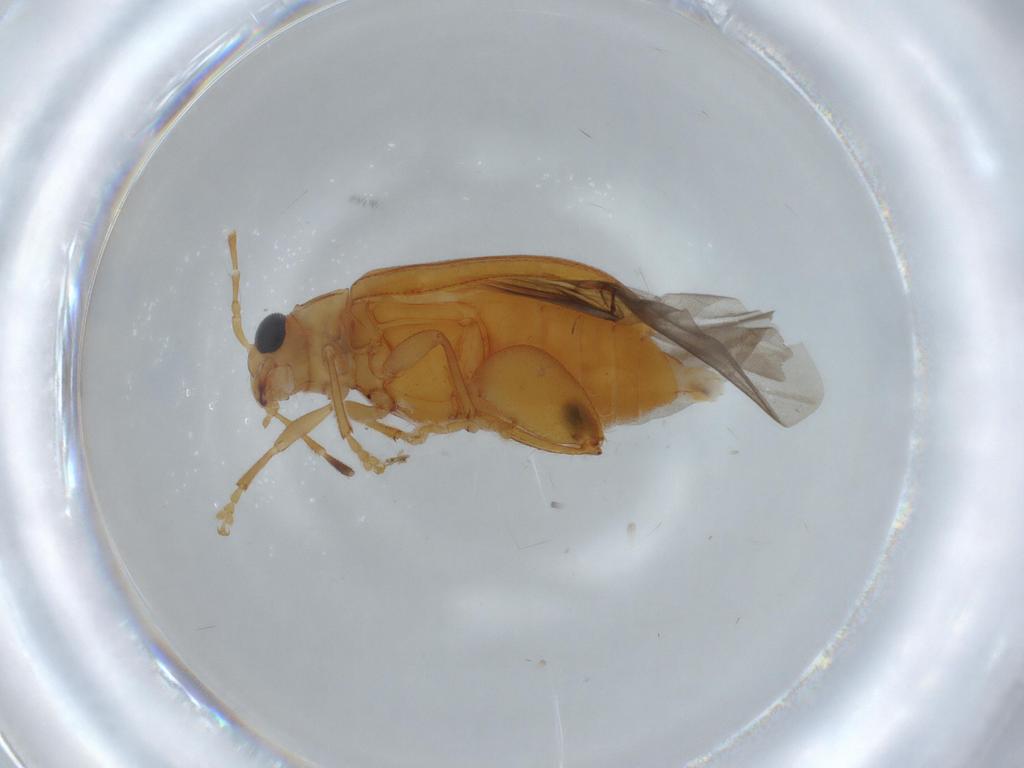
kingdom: Animalia
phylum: Arthropoda
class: Insecta
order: Coleoptera
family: Chrysomelidae
